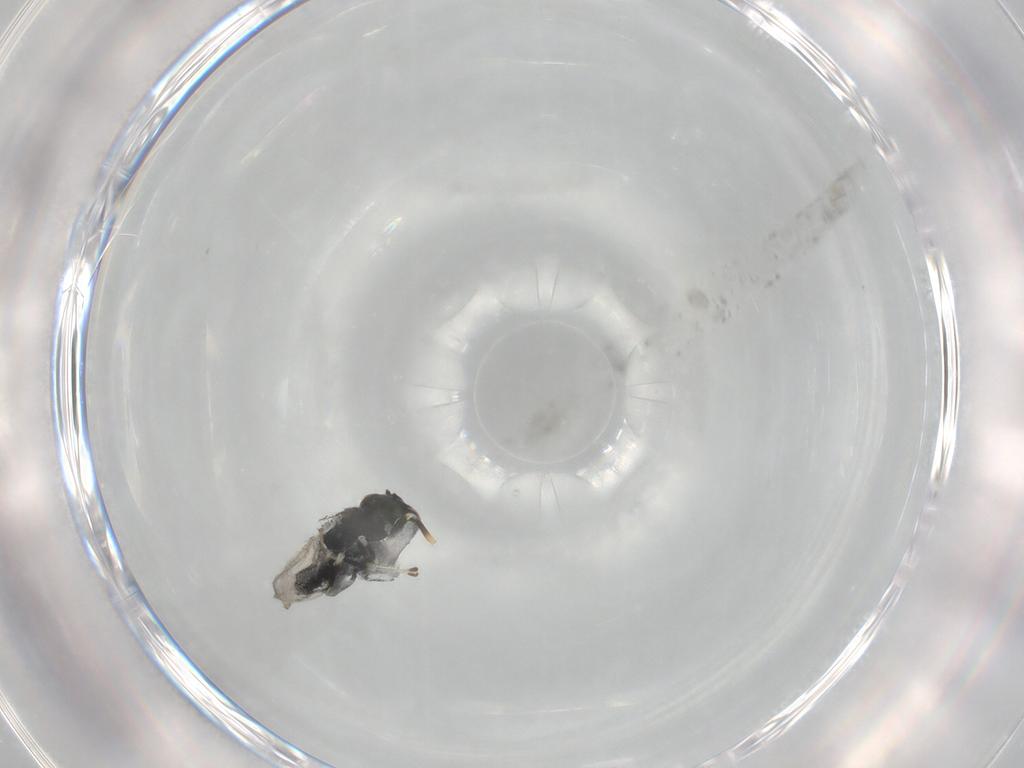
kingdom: Animalia
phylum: Arthropoda
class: Insecta
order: Hymenoptera
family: Trichogrammatidae
